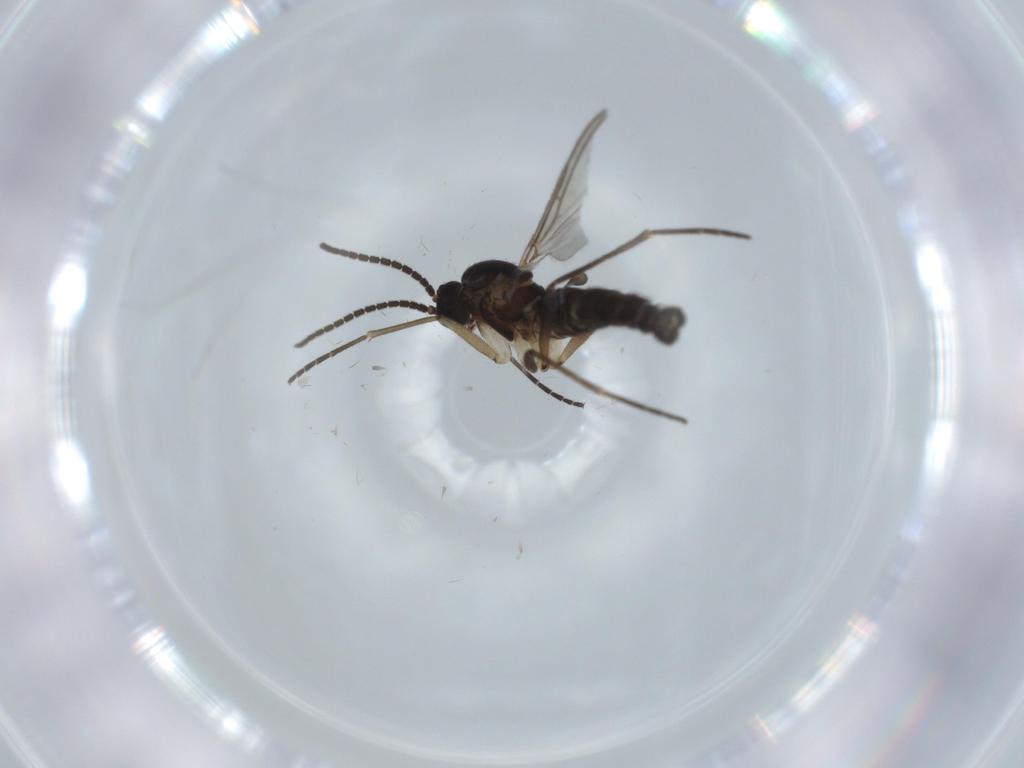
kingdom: Animalia
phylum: Arthropoda
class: Insecta
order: Diptera
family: Sciaridae
